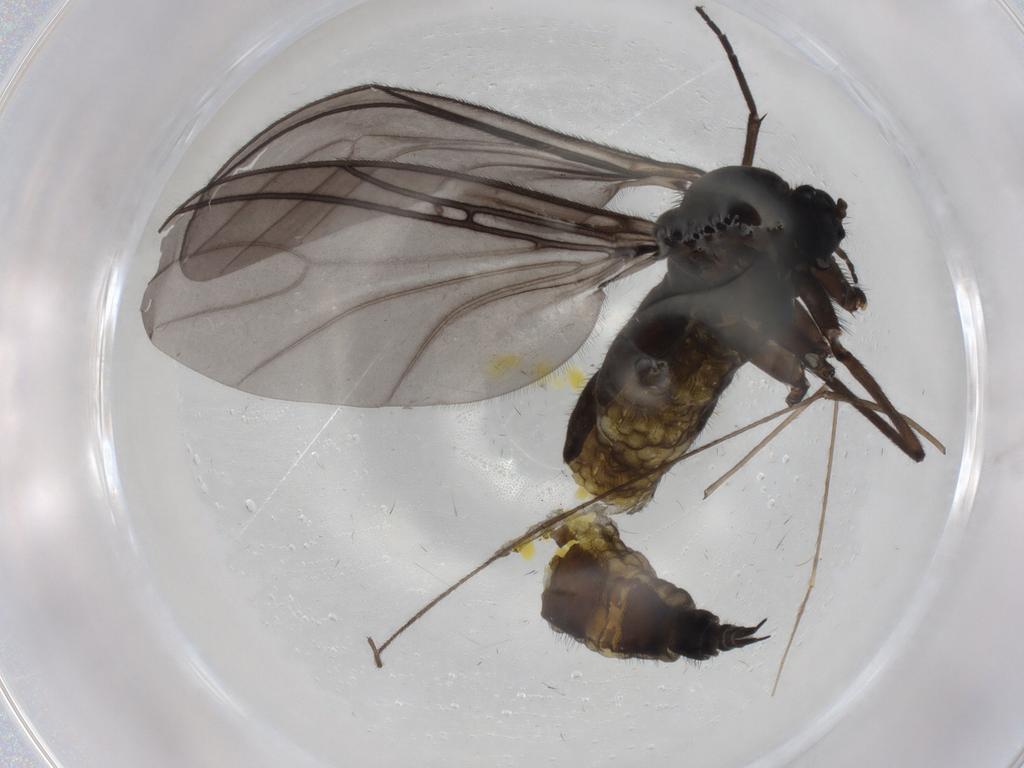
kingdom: Animalia
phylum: Arthropoda
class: Insecta
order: Diptera
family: Sciaridae
